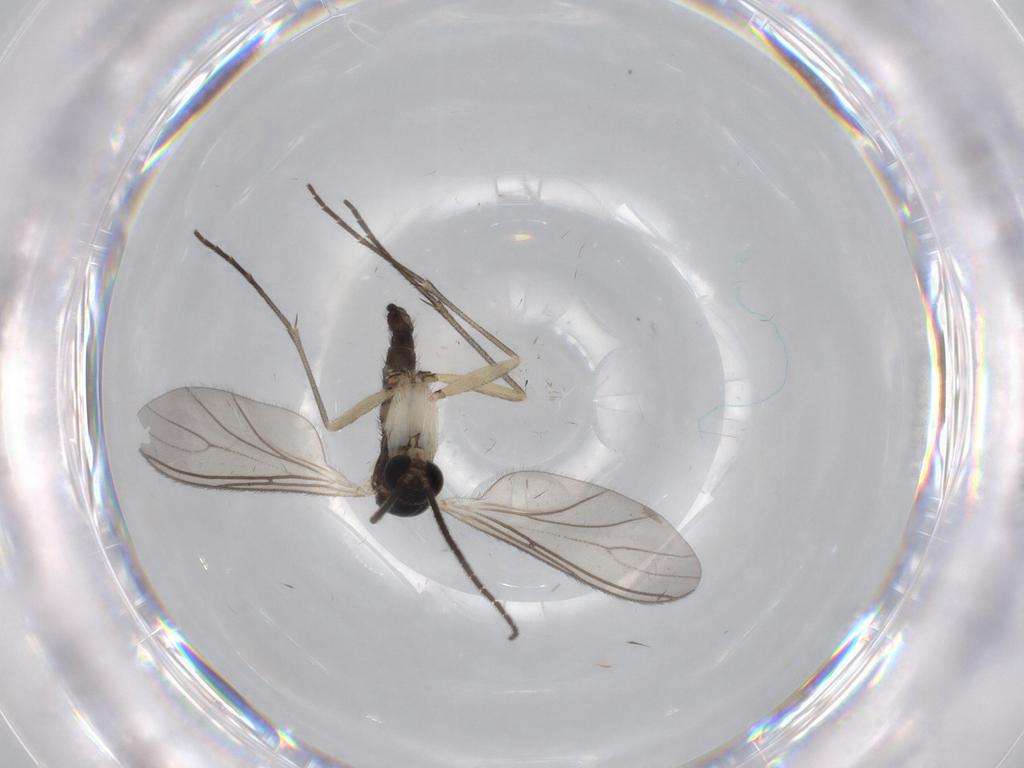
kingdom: Animalia
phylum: Arthropoda
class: Insecta
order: Diptera
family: Sciaridae
